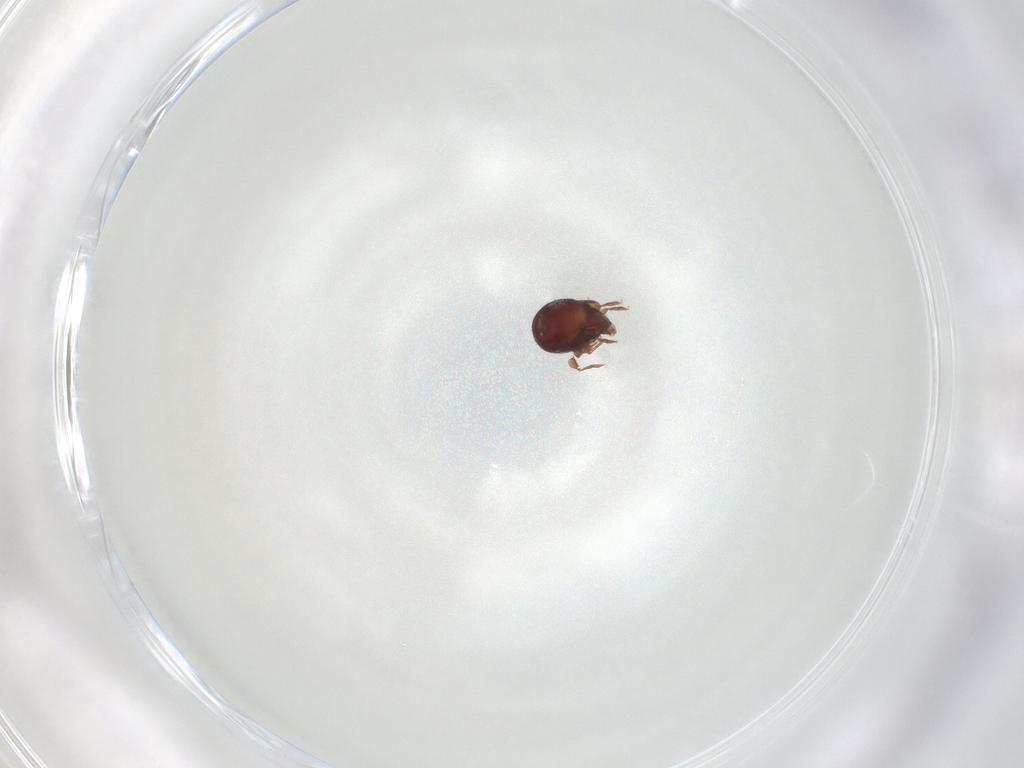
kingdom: Animalia
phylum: Arthropoda
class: Arachnida
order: Sarcoptiformes
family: Humerobatidae
